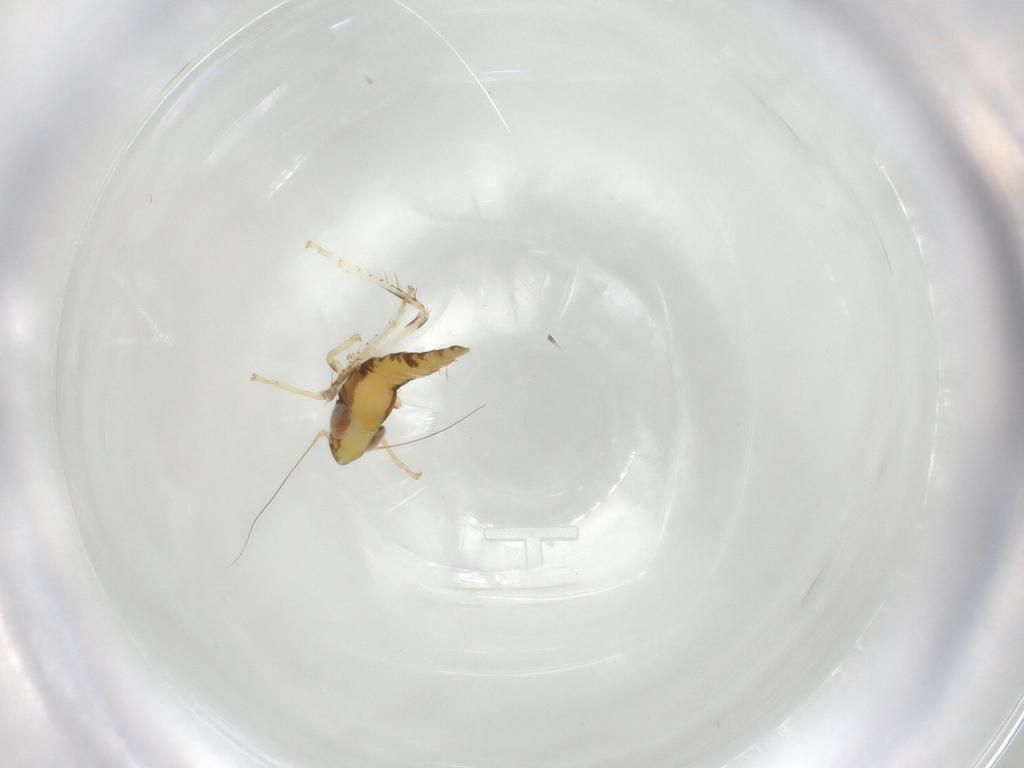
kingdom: Animalia
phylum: Arthropoda
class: Insecta
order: Hemiptera
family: Cicadellidae
